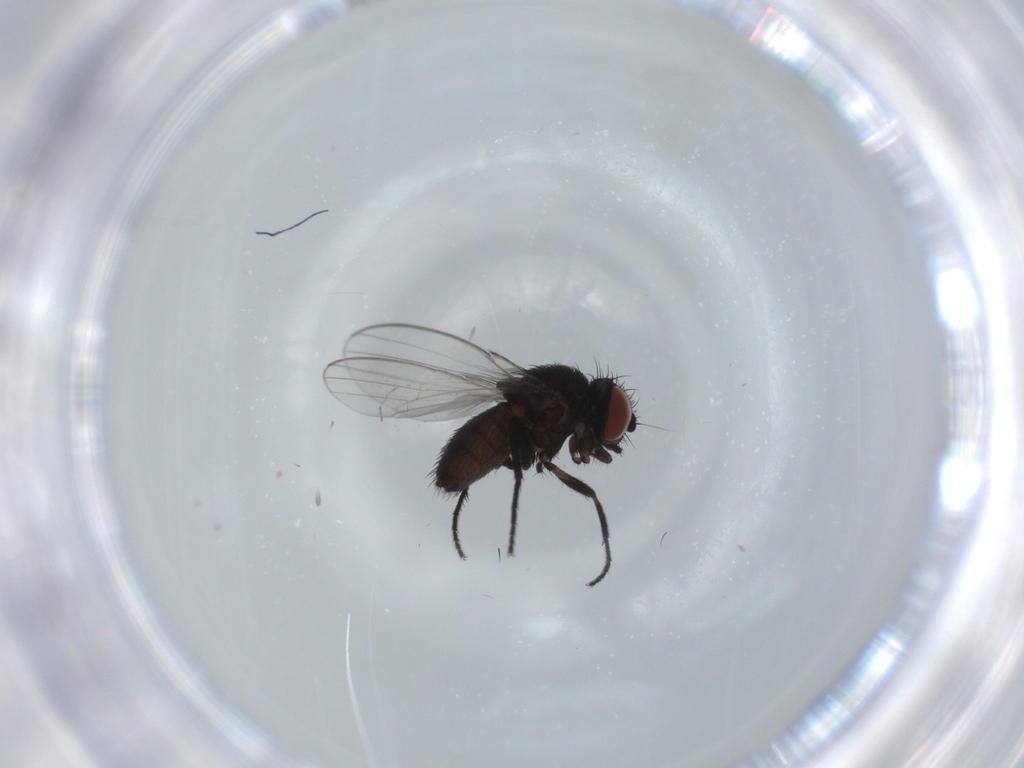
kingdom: Animalia
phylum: Arthropoda
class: Insecta
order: Diptera
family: Milichiidae
